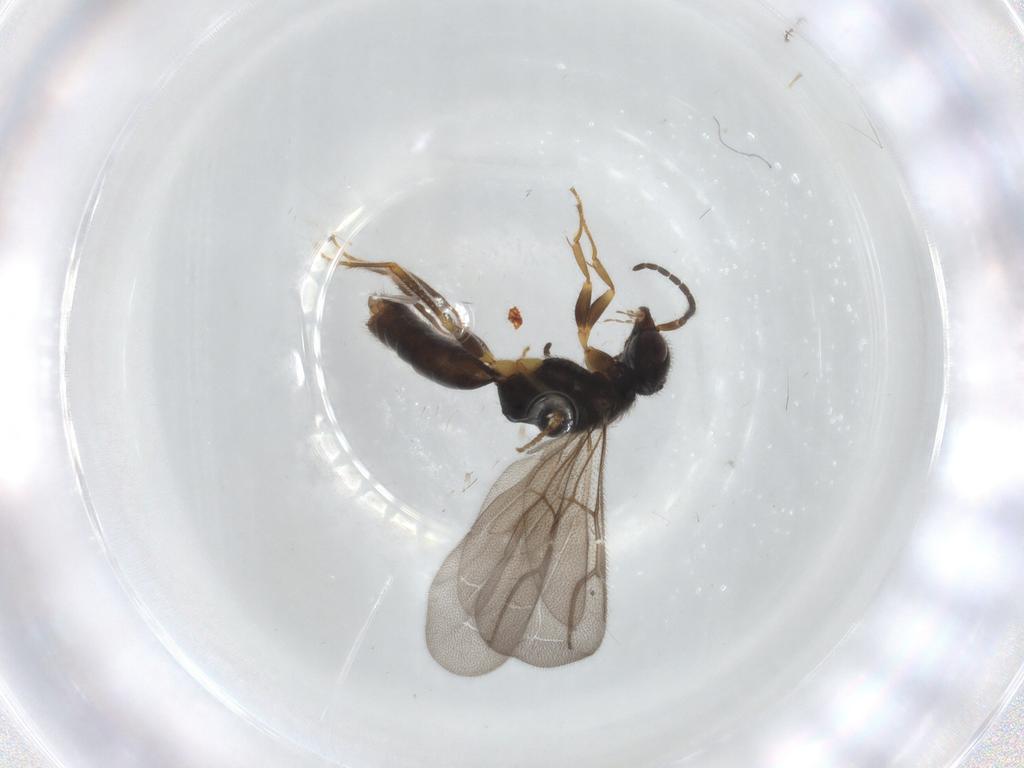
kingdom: Animalia
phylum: Arthropoda
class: Insecta
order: Hymenoptera
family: Bethylidae
